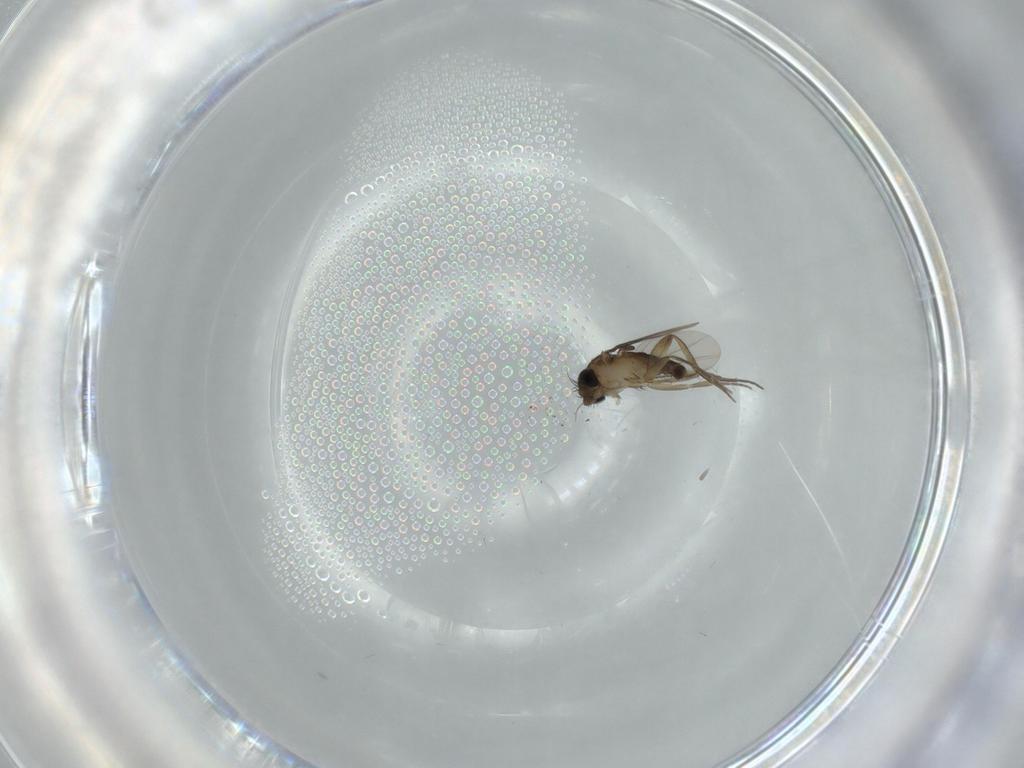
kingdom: Animalia
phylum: Arthropoda
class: Insecta
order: Diptera
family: Phoridae
